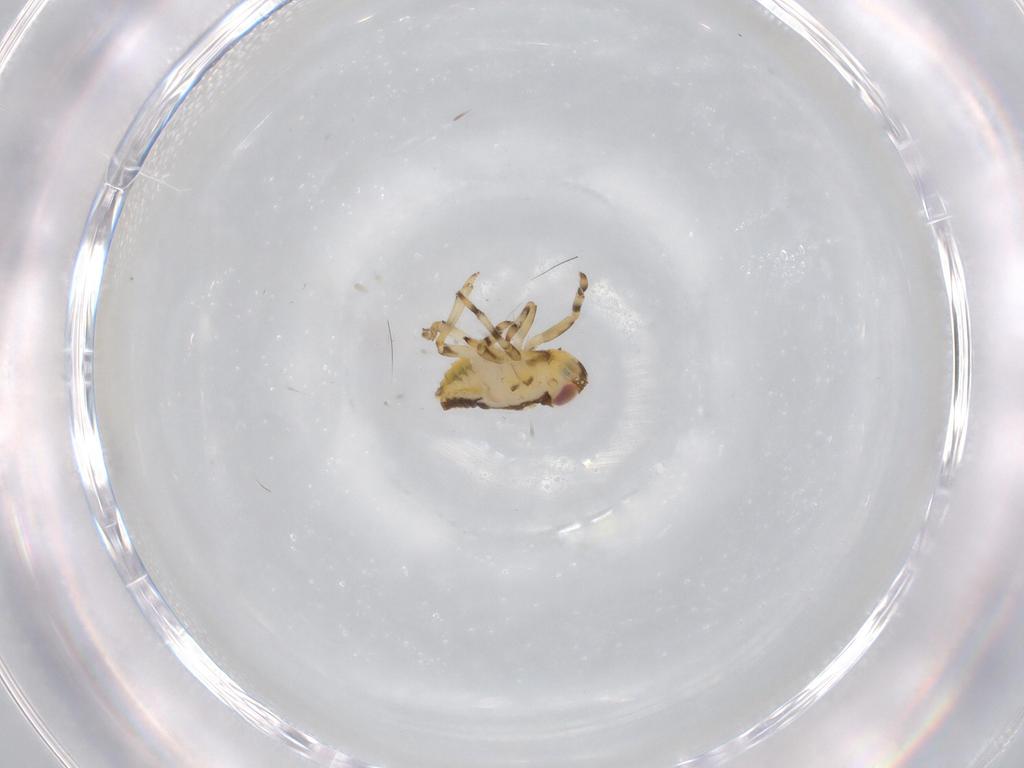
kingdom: Animalia
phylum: Arthropoda
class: Insecta
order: Hemiptera
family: Issidae
